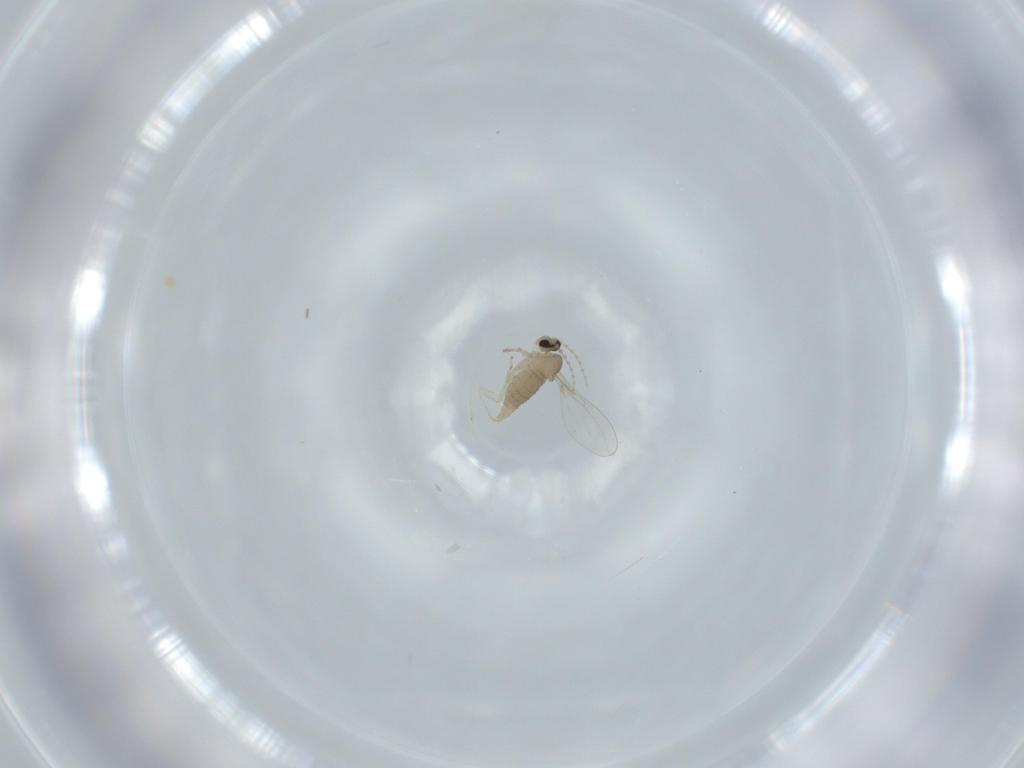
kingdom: Animalia
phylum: Arthropoda
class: Insecta
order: Diptera
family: Cecidomyiidae
